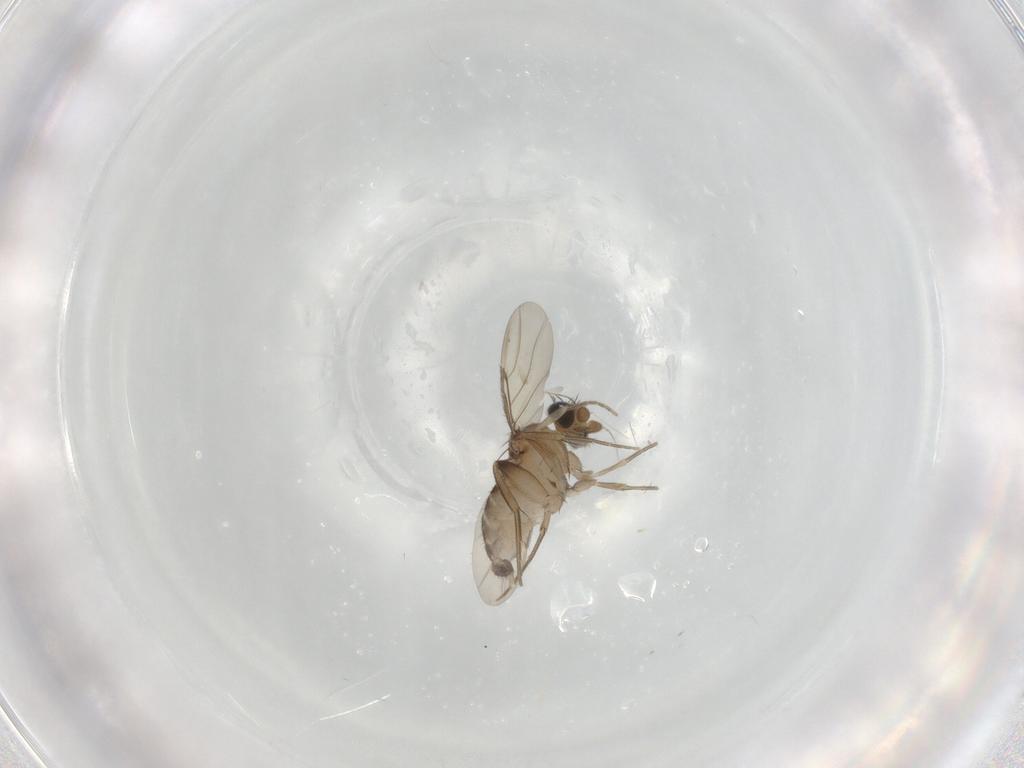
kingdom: Animalia
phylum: Arthropoda
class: Insecta
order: Diptera
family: Phoridae
